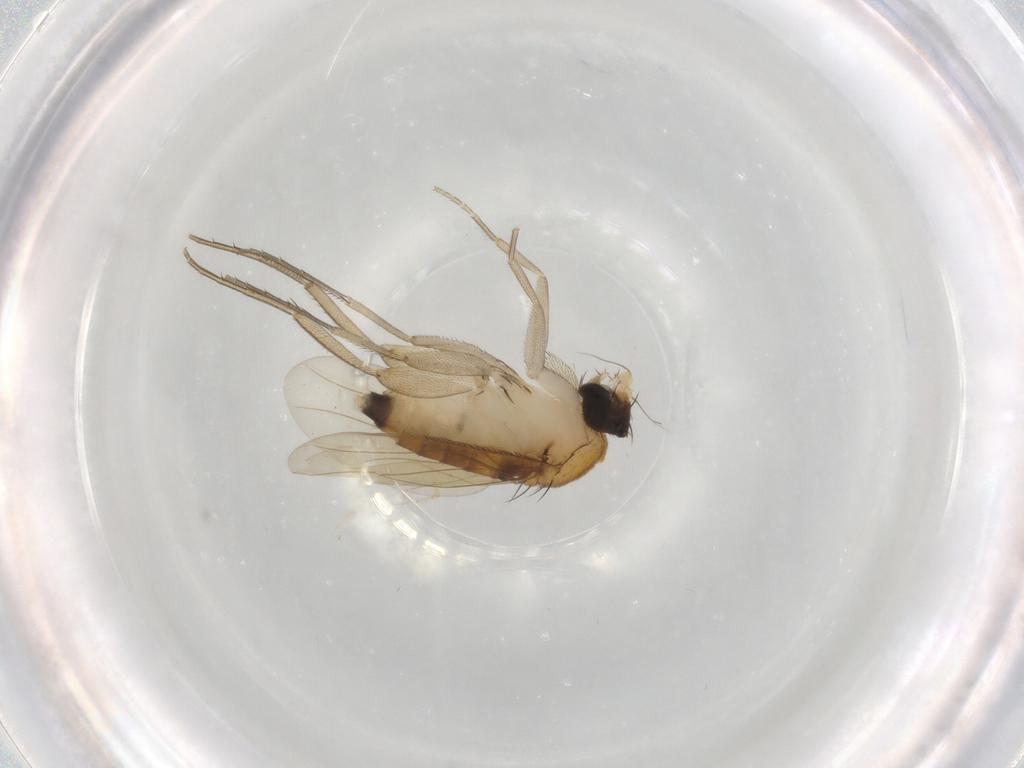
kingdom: Animalia
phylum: Arthropoda
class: Insecta
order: Diptera
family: Phoridae
